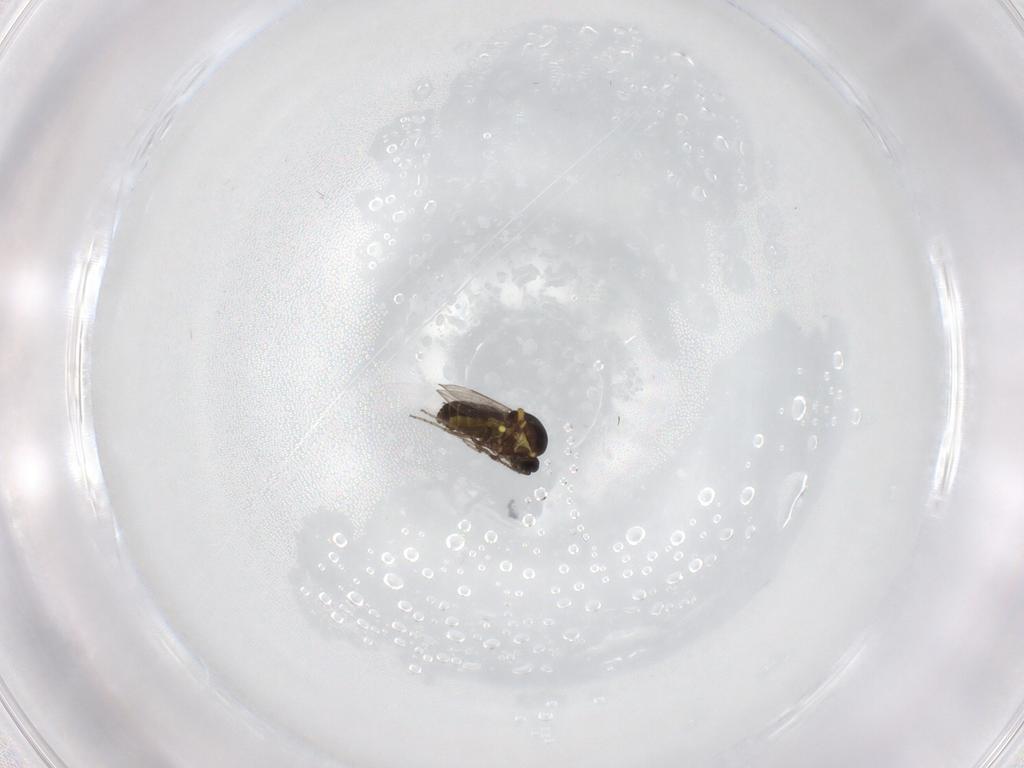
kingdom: Animalia
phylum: Arthropoda
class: Insecta
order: Diptera
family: Ceratopogonidae
